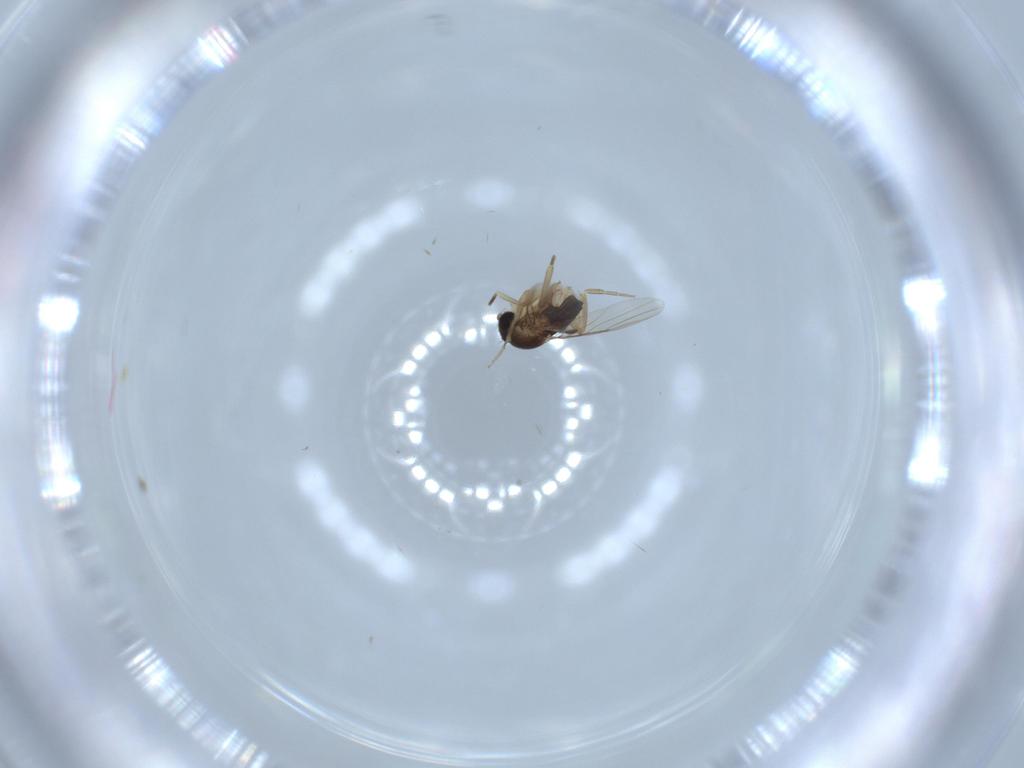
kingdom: Animalia
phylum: Arthropoda
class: Insecta
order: Diptera
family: Phoridae
